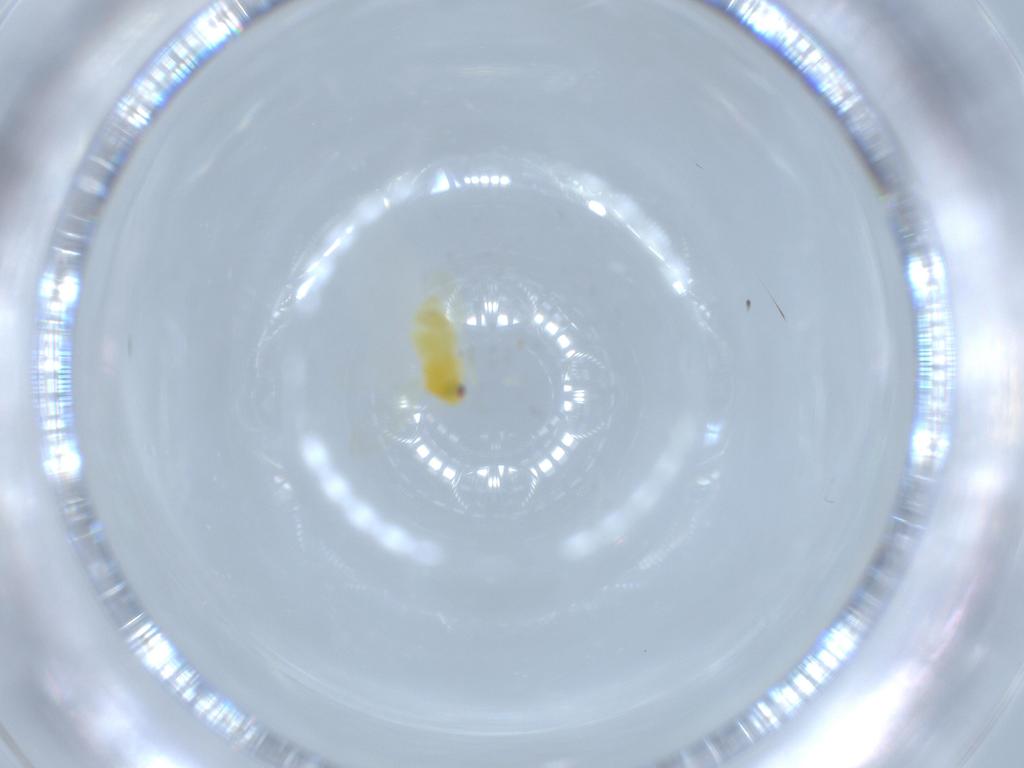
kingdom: Animalia
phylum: Arthropoda
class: Insecta
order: Hemiptera
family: Aleyrodidae
